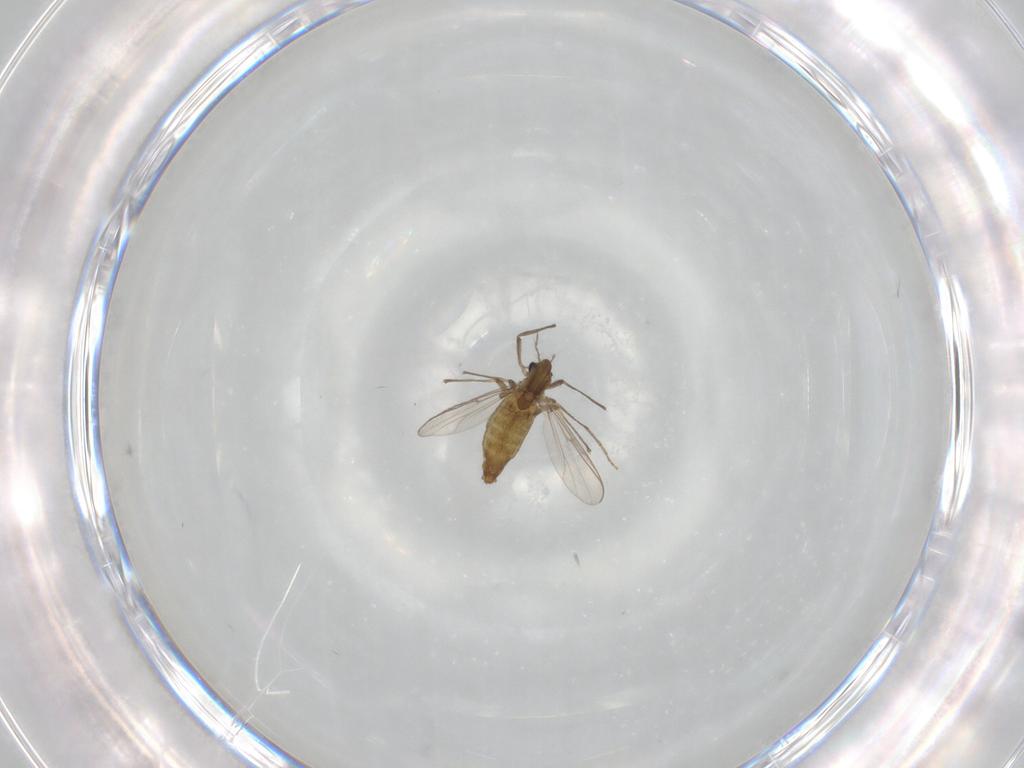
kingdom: Animalia
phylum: Arthropoda
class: Insecta
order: Diptera
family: Chironomidae
